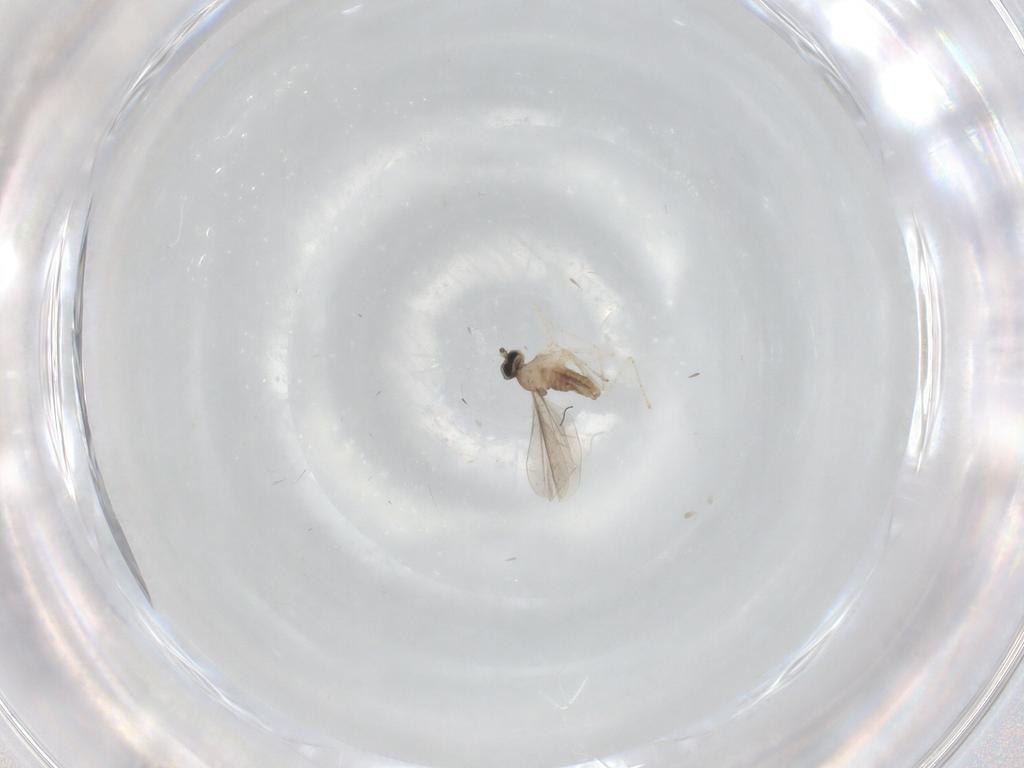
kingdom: Animalia
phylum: Arthropoda
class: Insecta
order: Diptera
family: Cecidomyiidae
